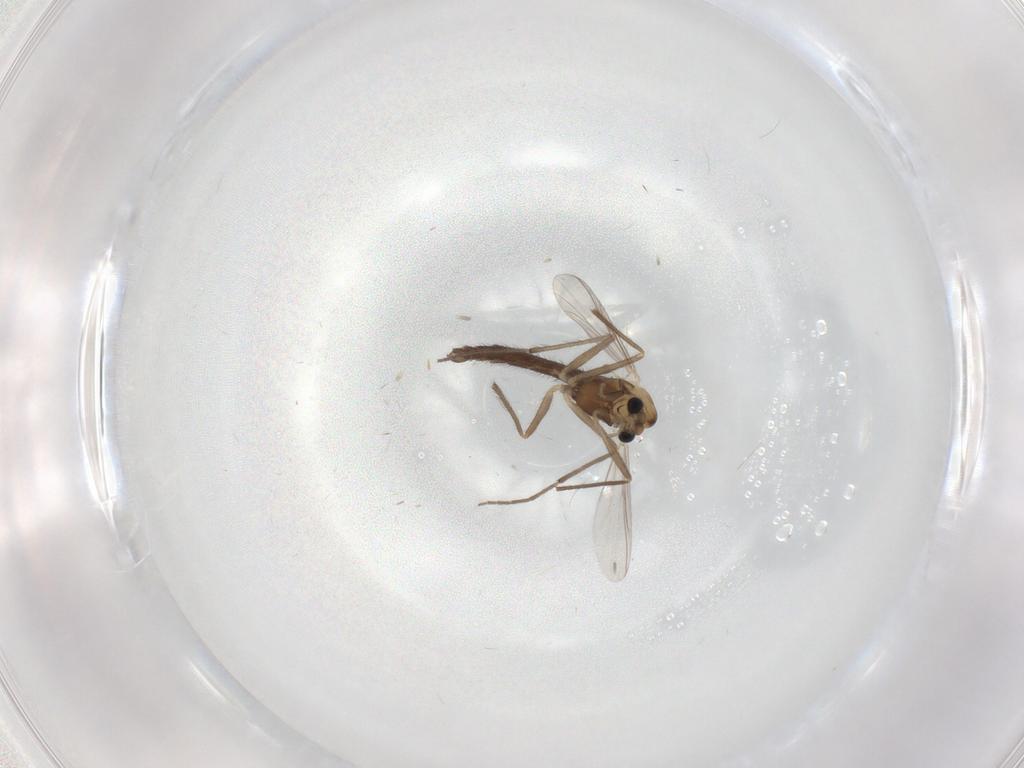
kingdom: Animalia
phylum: Arthropoda
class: Insecta
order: Diptera
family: Chironomidae
